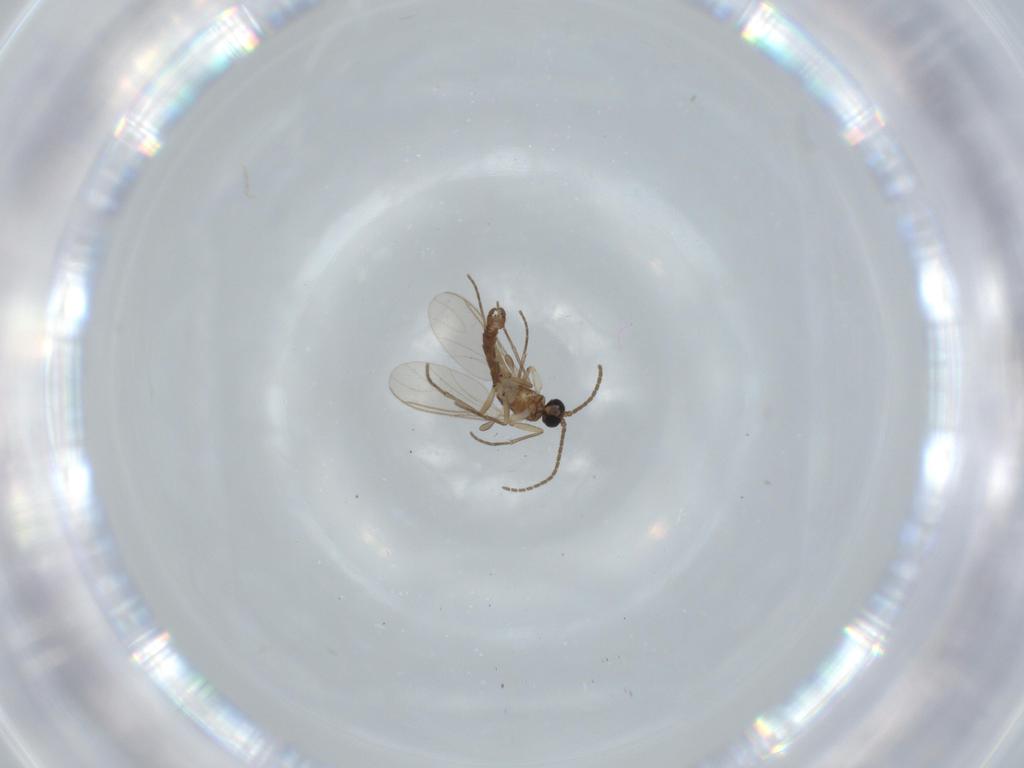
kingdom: Animalia
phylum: Arthropoda
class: Insecta
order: Diptera
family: Sciaridae
